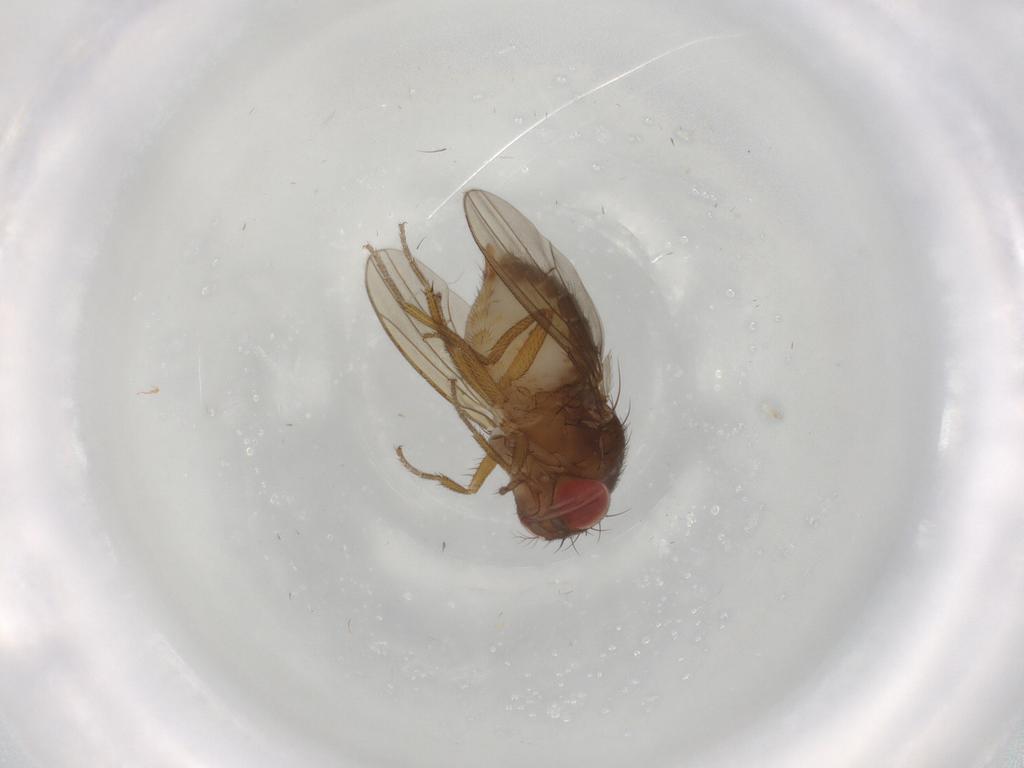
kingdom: Animalia
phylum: Arthropoda
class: Insecta
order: Diptera
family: Drosophilidae
